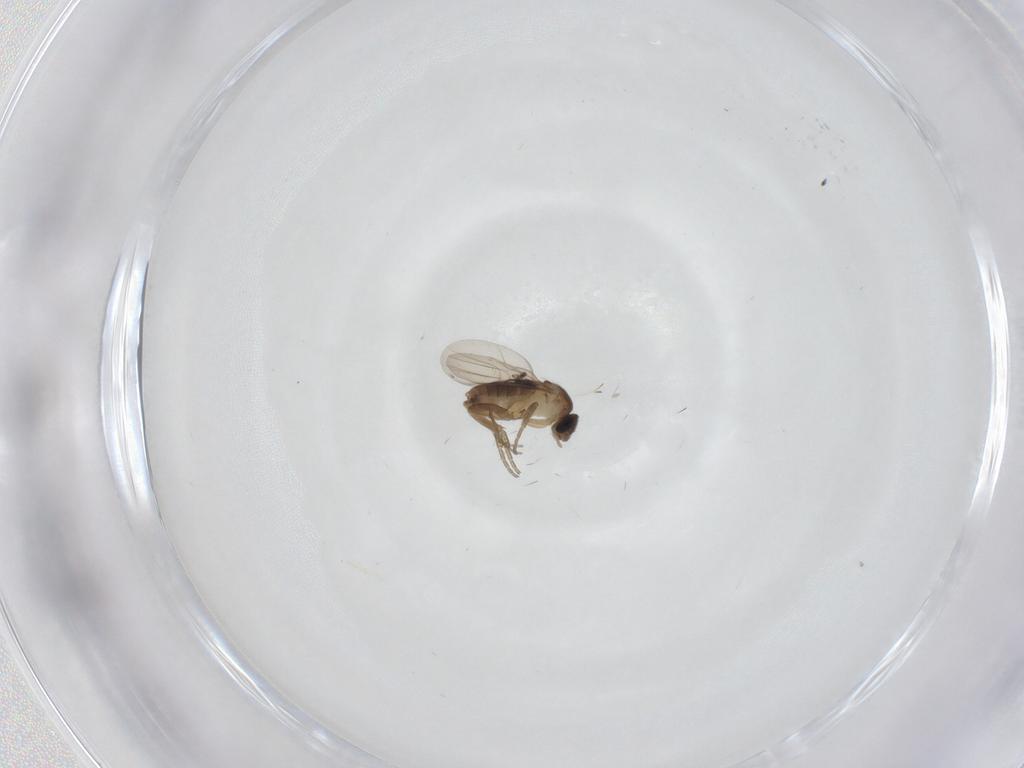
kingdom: Animalia
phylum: Arthropoda
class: Insecta
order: Diptera
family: Sciaridae
